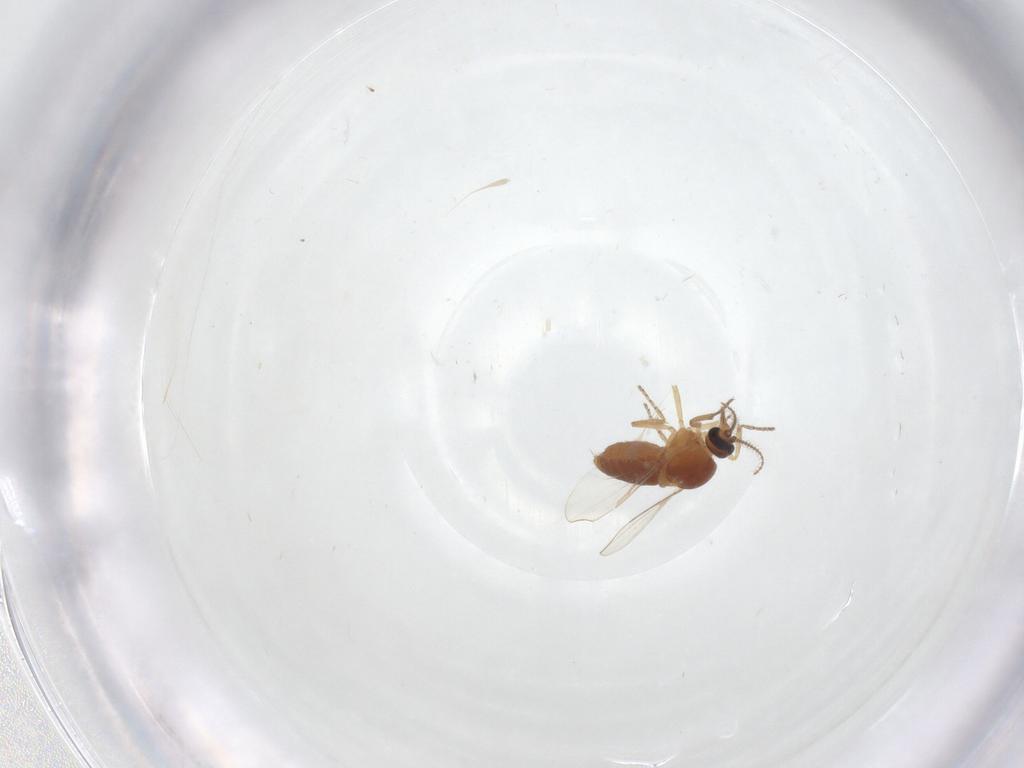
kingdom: Animalia
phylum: Arthropoda
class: Insecta
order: Diptera
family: Ceratopogonidae
